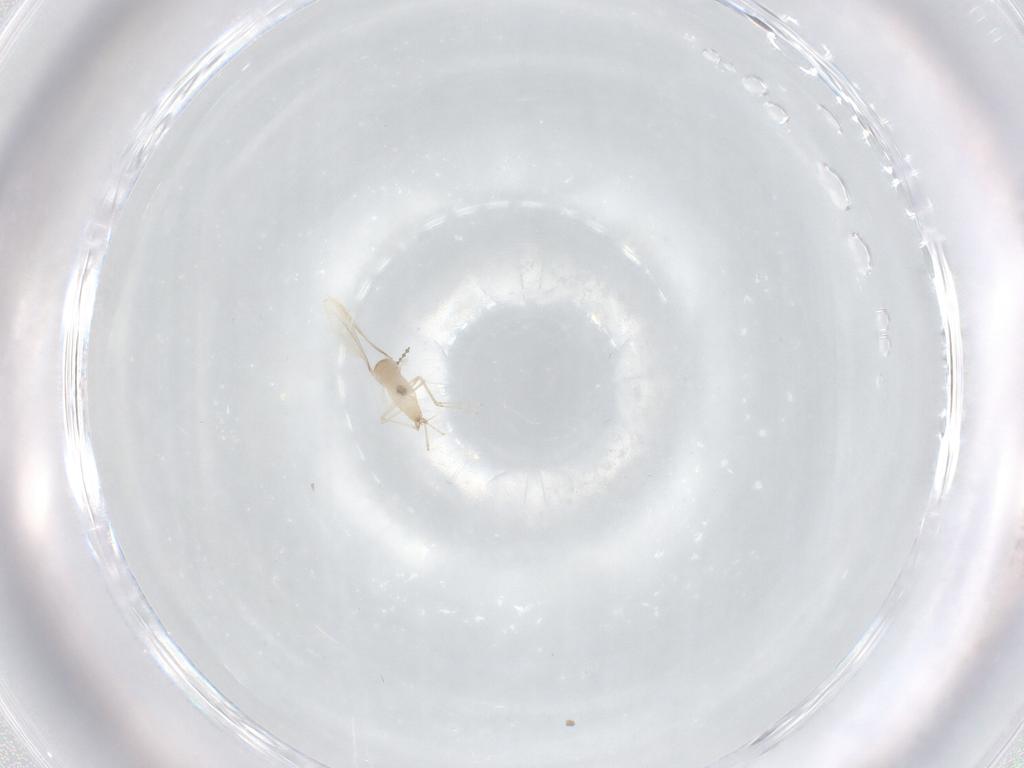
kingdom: Animalia
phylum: Arthropoda
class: Insecta
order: Diptera
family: Cecidomyiidae
